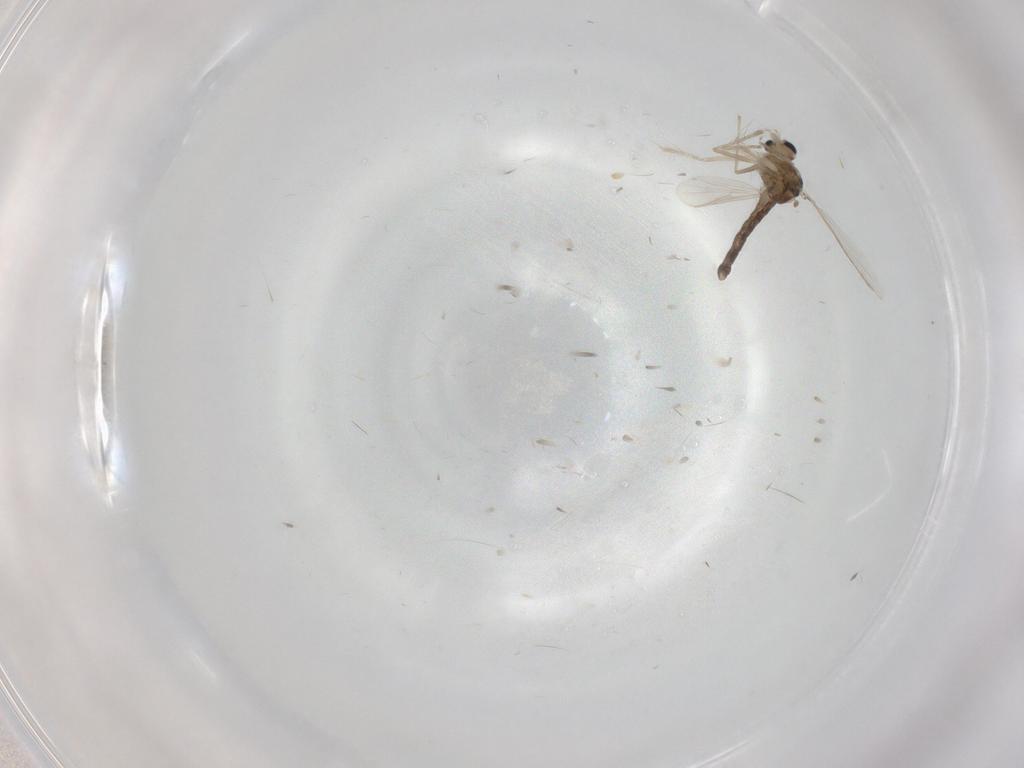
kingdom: Animalia
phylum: Arthropoda
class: Insecta
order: Diptera
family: Chironomidae
